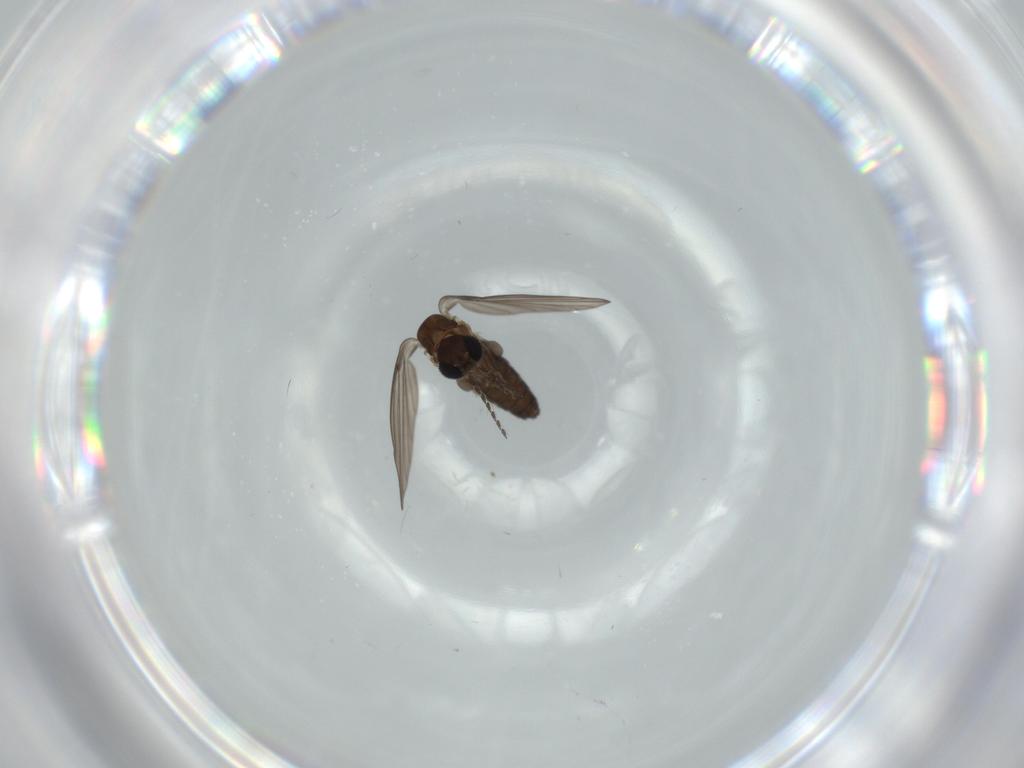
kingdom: Animalia
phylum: Arthropoda
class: Insecta
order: Diptera
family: Psychodidae
